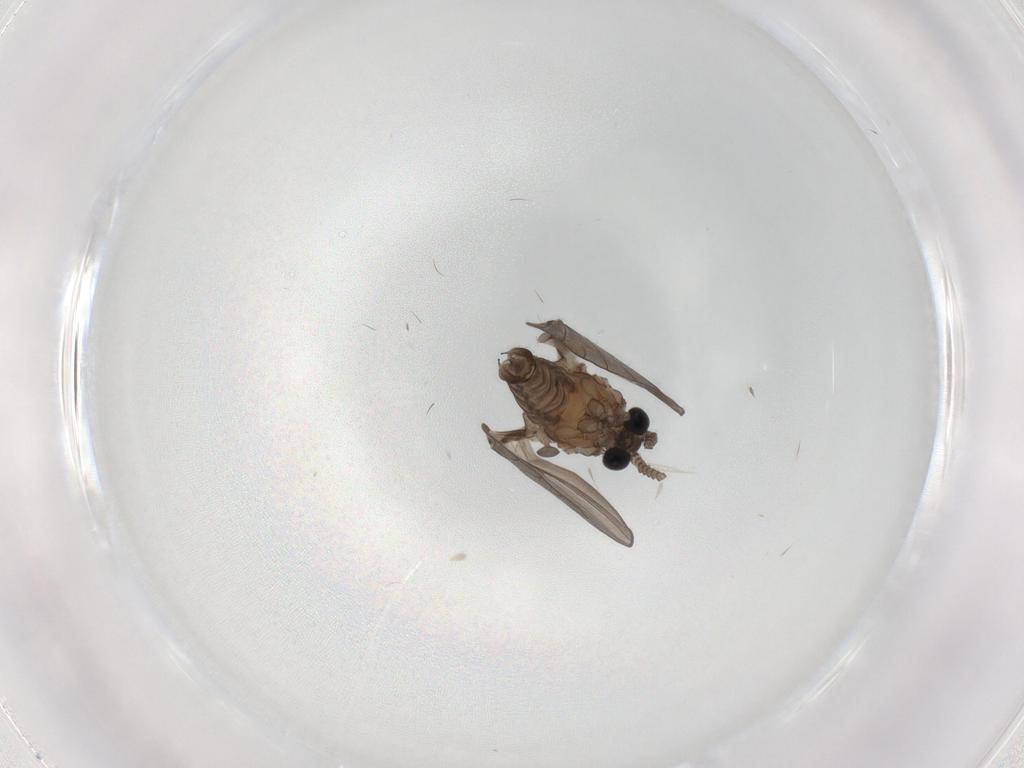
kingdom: Animalia
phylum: Arthropoda
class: Insecta
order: Diptera
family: Psychodidae
